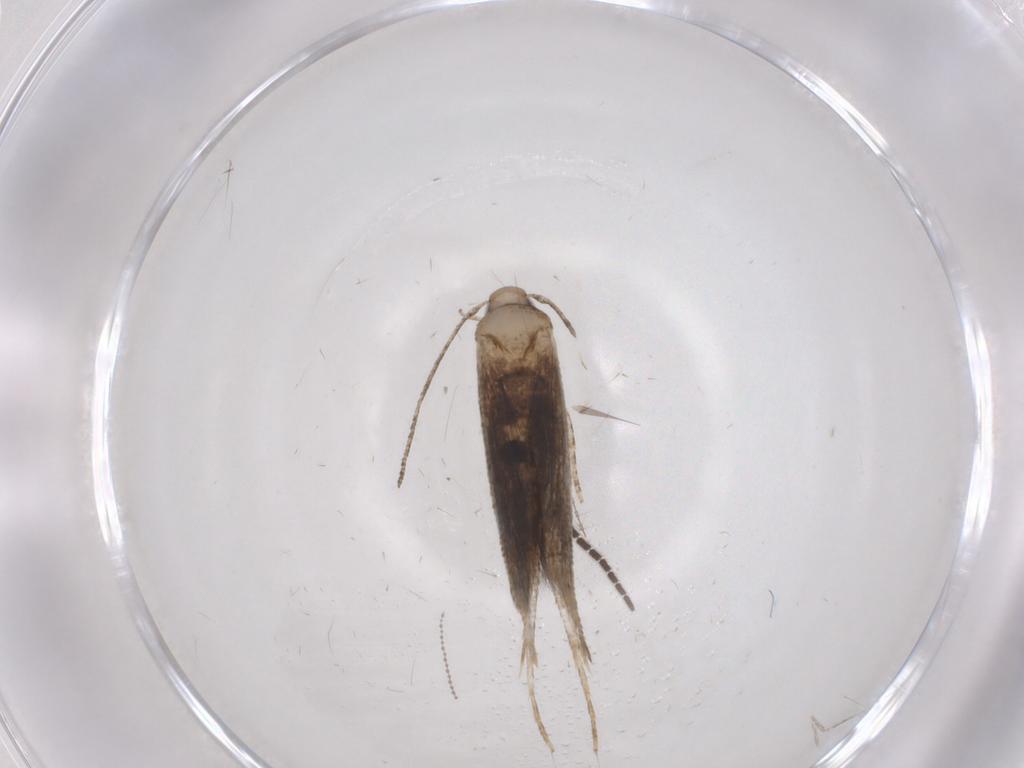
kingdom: Animalia
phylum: Arthropoda
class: Insecta
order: Lepidoptera
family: Cosmopterigidae
